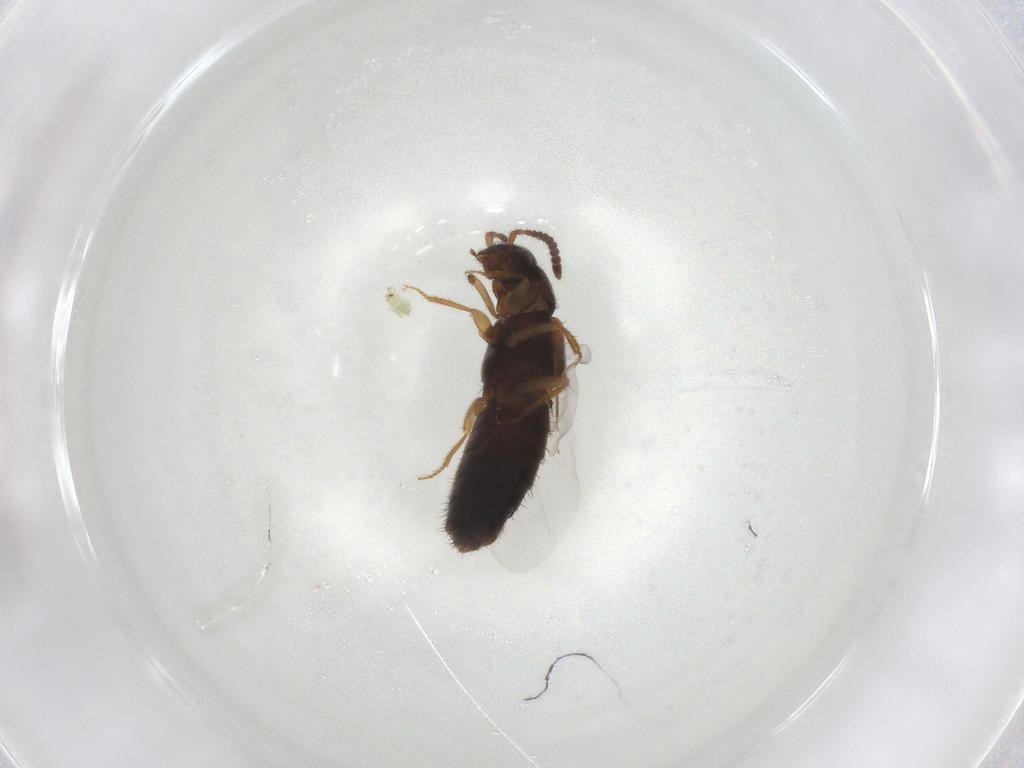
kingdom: Animalia
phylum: Arthropoda
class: Insecta
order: Coleoptera
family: Staphylinidae
